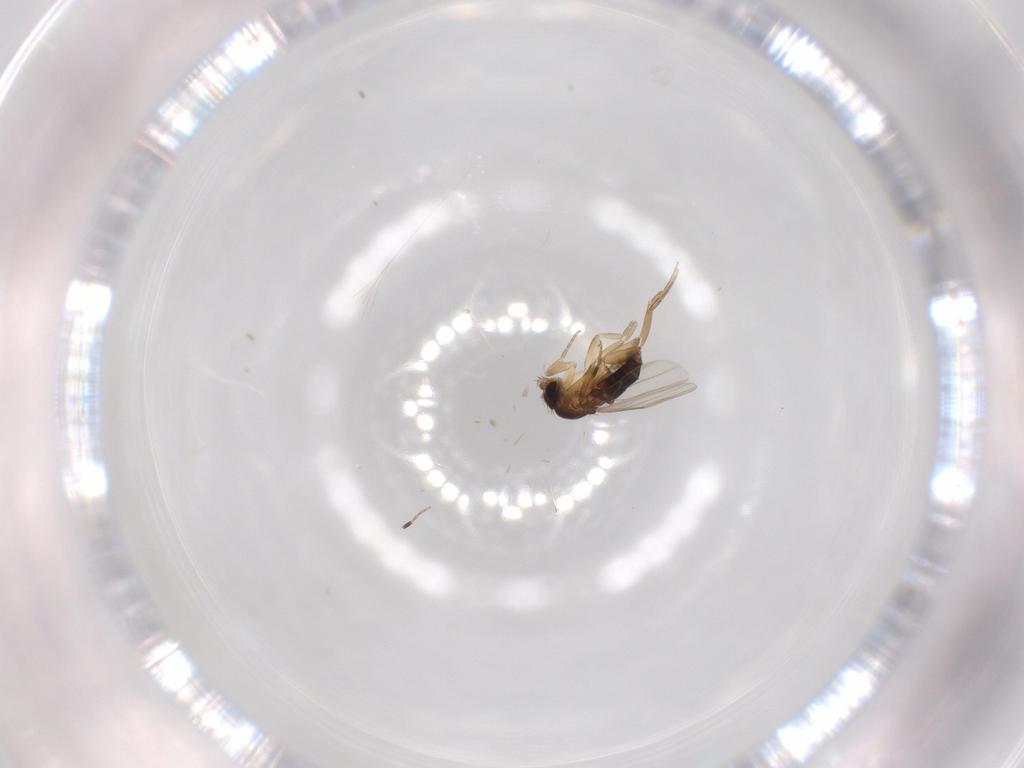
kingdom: Animalia
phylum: Arthropoda
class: Insecta
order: Diptera
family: Phoridae
